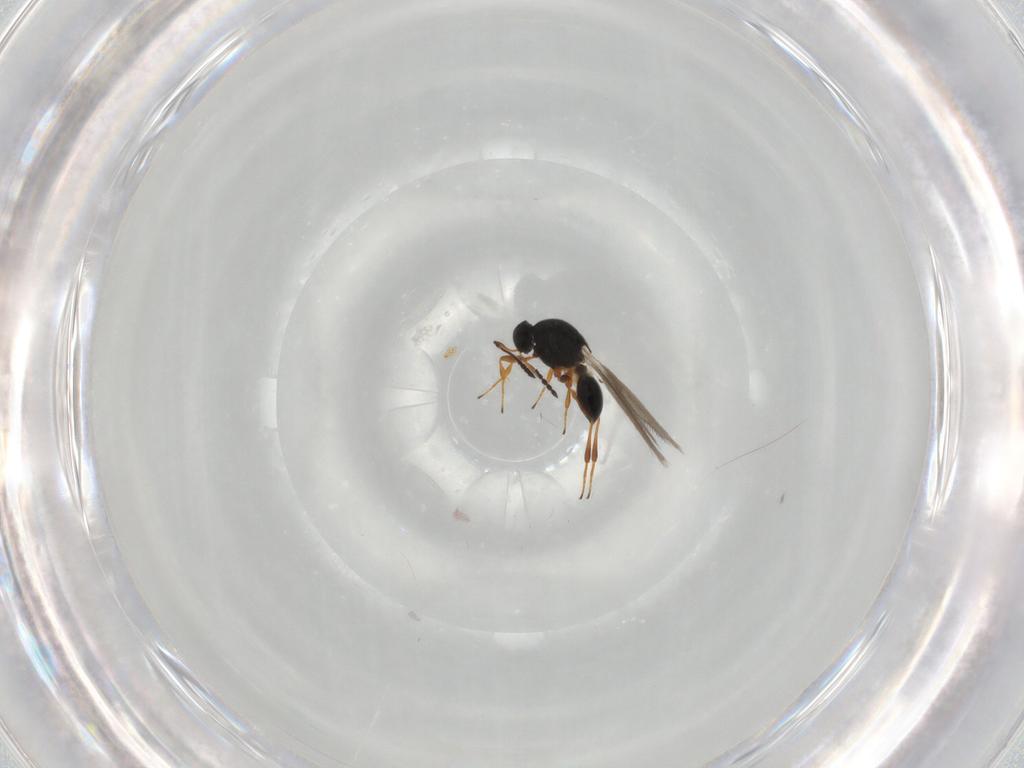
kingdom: Animalia
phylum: Arthropoda
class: Insecta
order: Hymenoptera
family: Platygastridae
